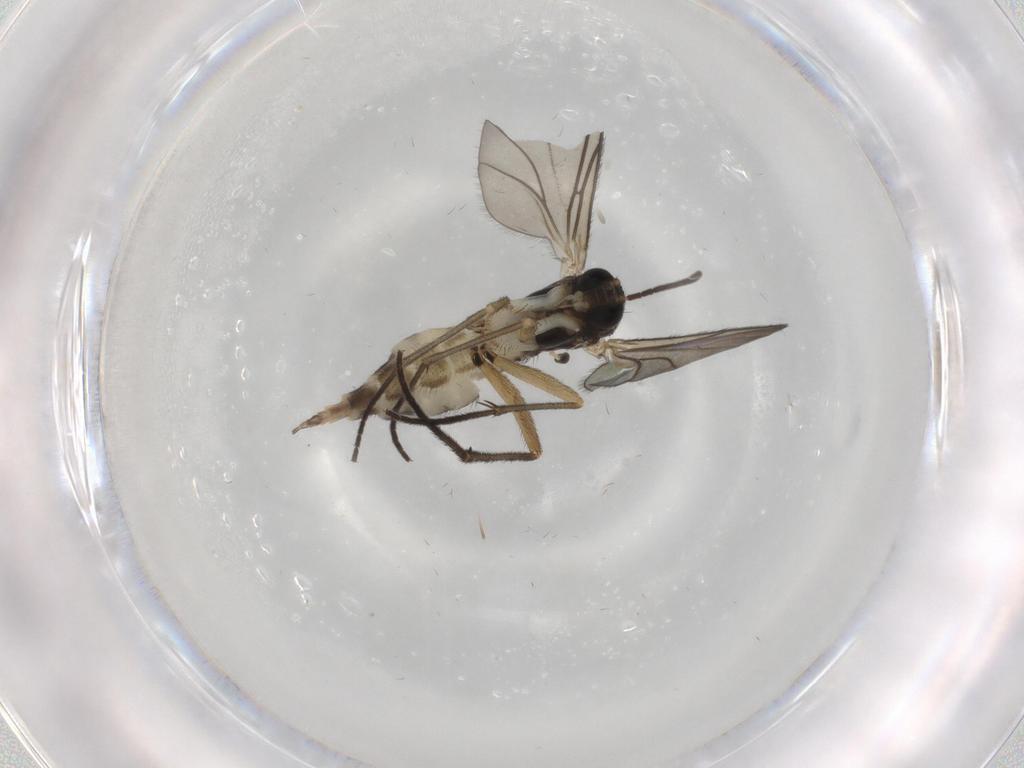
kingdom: Animalia
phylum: Arthropoda
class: Insecta
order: Diptera
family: Sciaridae
